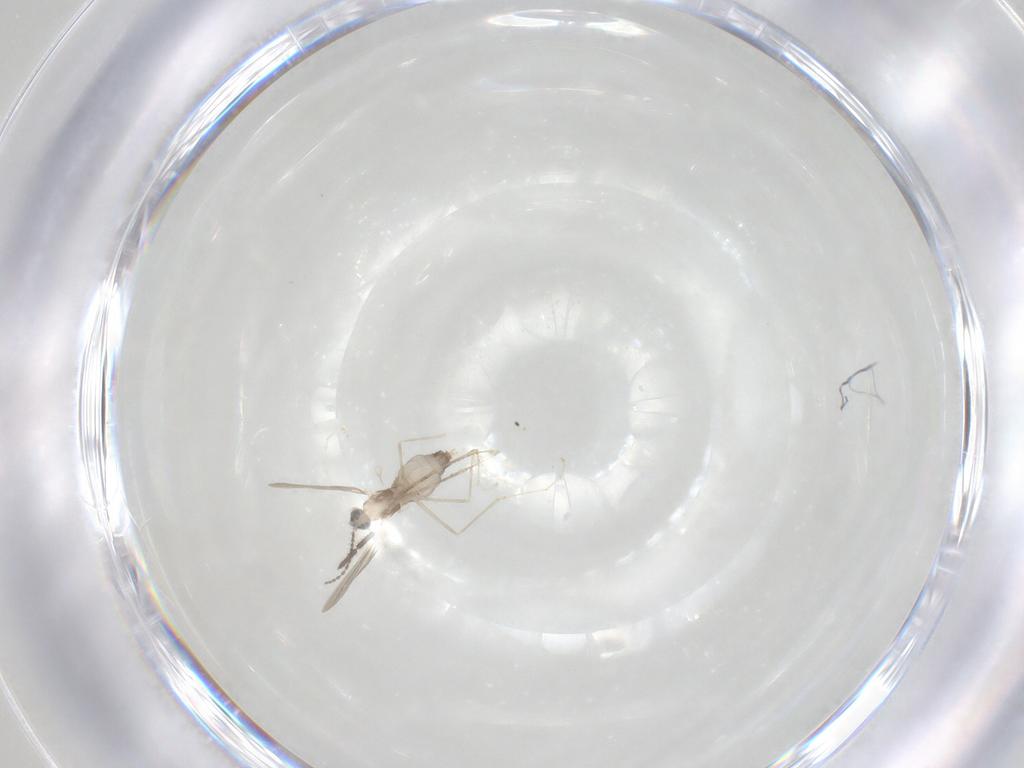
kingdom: Animalia
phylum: Arthropoda
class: Insecta
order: Diptera
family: Cecidomyiidae
